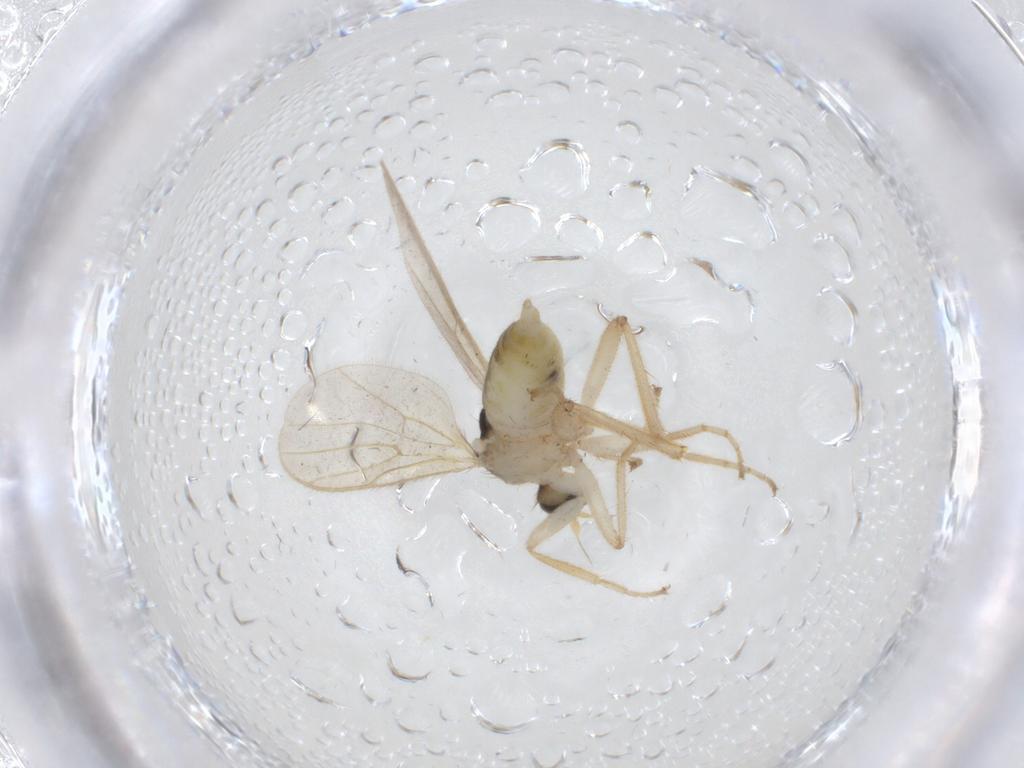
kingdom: Animalia
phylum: Arthropoda
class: Insecta
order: Diptera
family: Hybotidae
